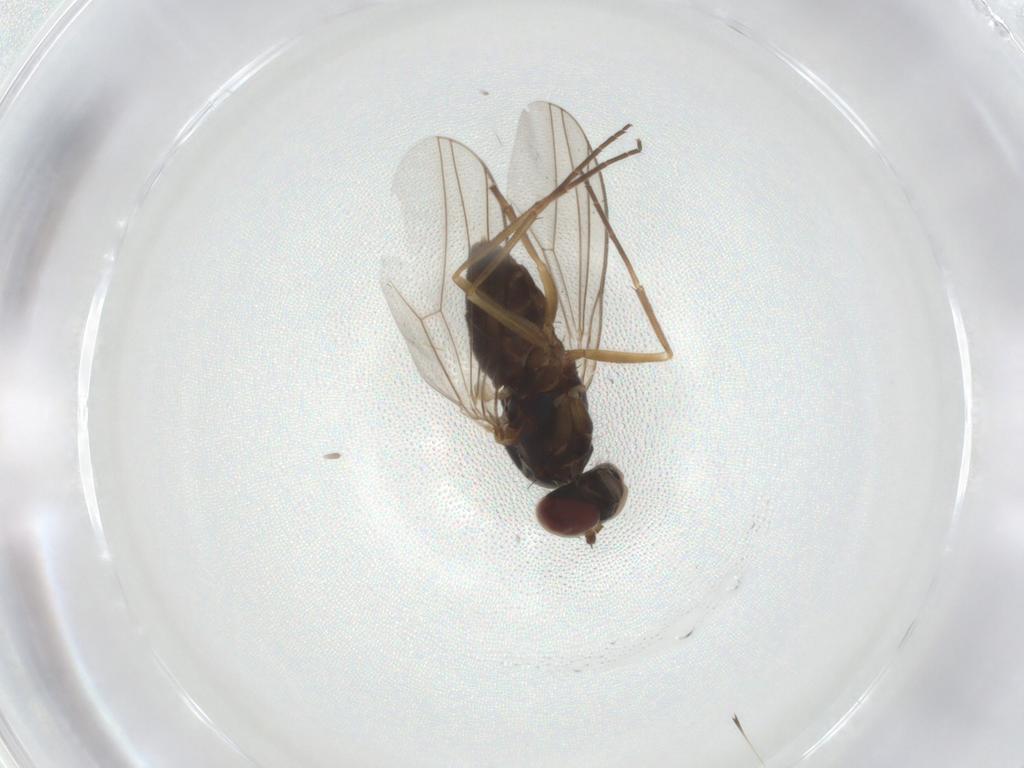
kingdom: Animalia
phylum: Arthropoda
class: Insecta
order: Diptera
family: Dolichopodidae
